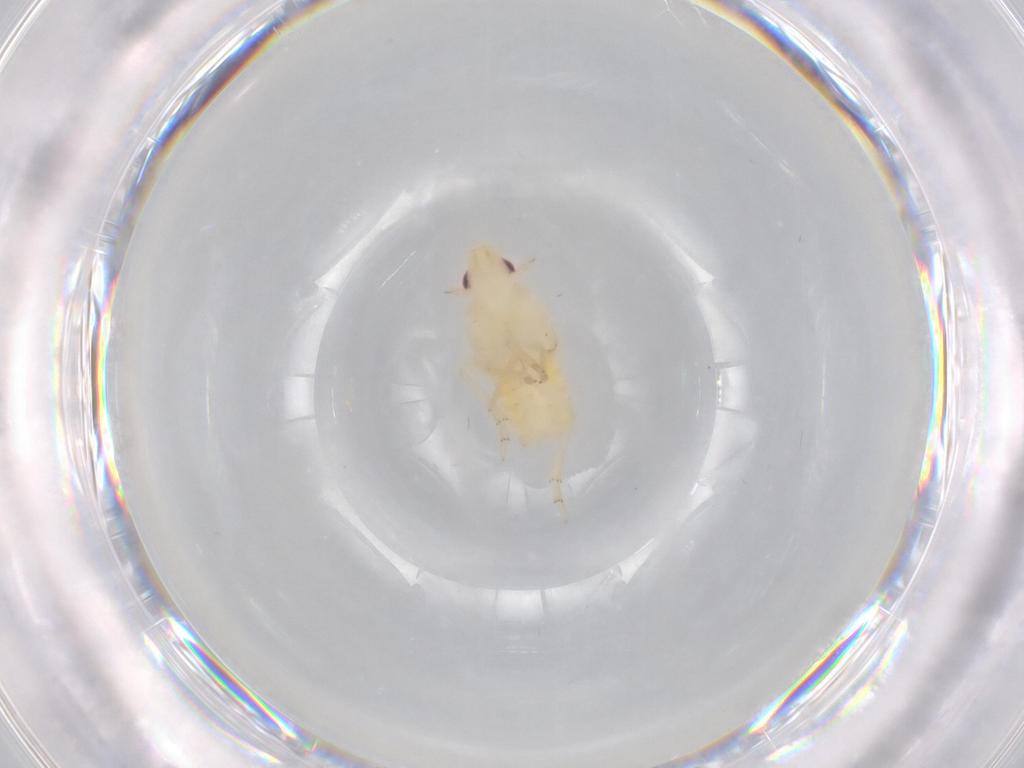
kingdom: Animalia
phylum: Arthropoda
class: Insecta
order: Hemiptera
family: Flatidae
